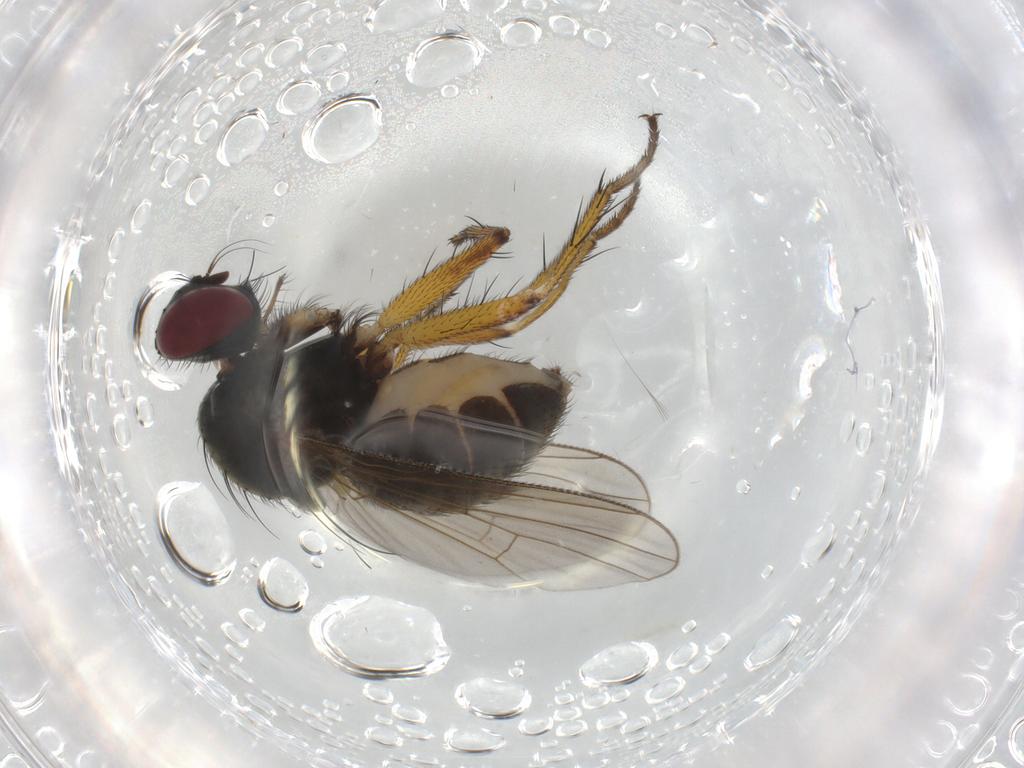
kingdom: Animalia
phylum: Arthropoda
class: Insecta
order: Diptera
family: Muscidae
